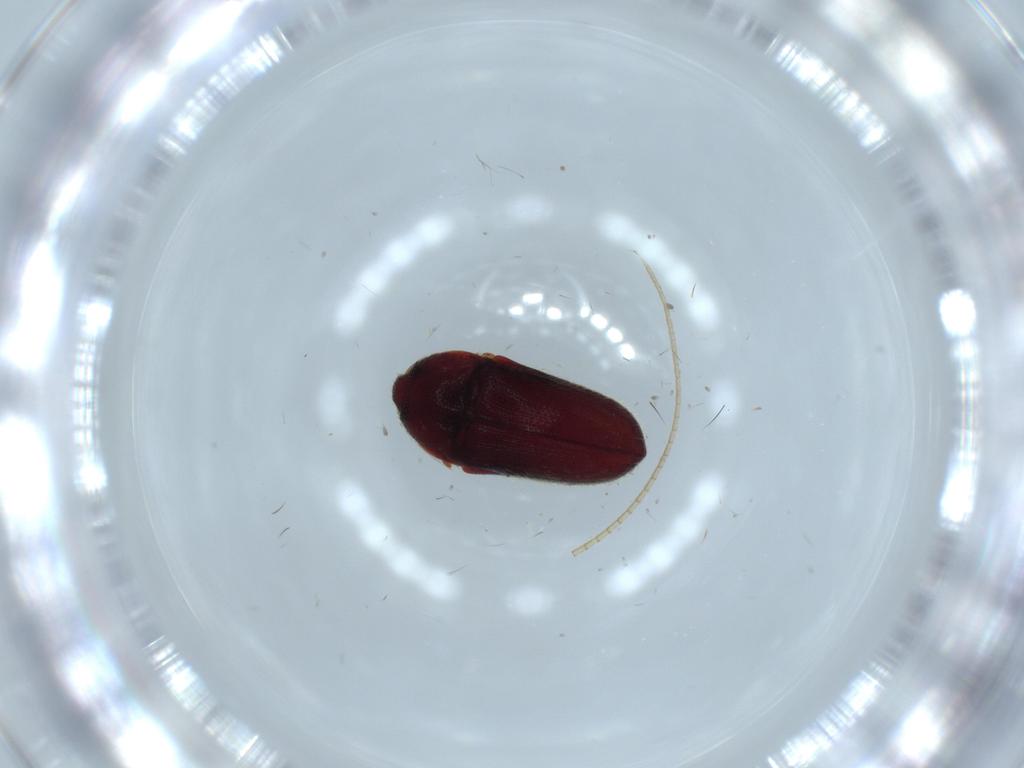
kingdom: Animalia
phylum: Arthropoda
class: Insecta
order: Coleoptera
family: Throscidae
